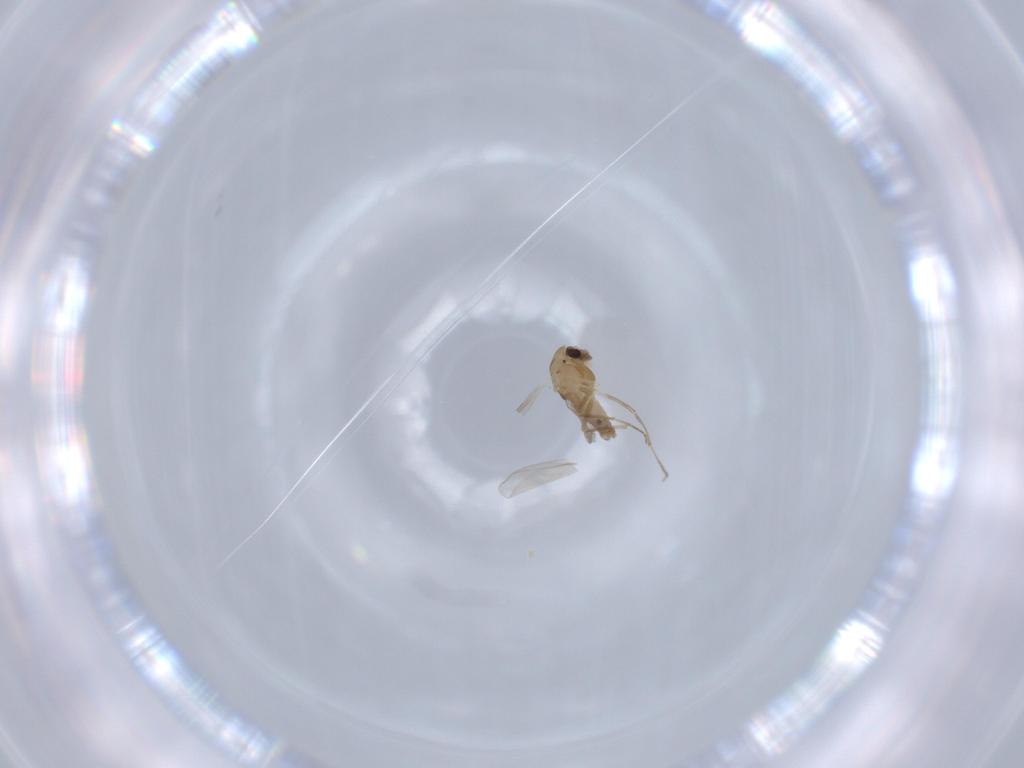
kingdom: Animalia
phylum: Arthropoda
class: Insecta
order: Diptera
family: Chironomidae
